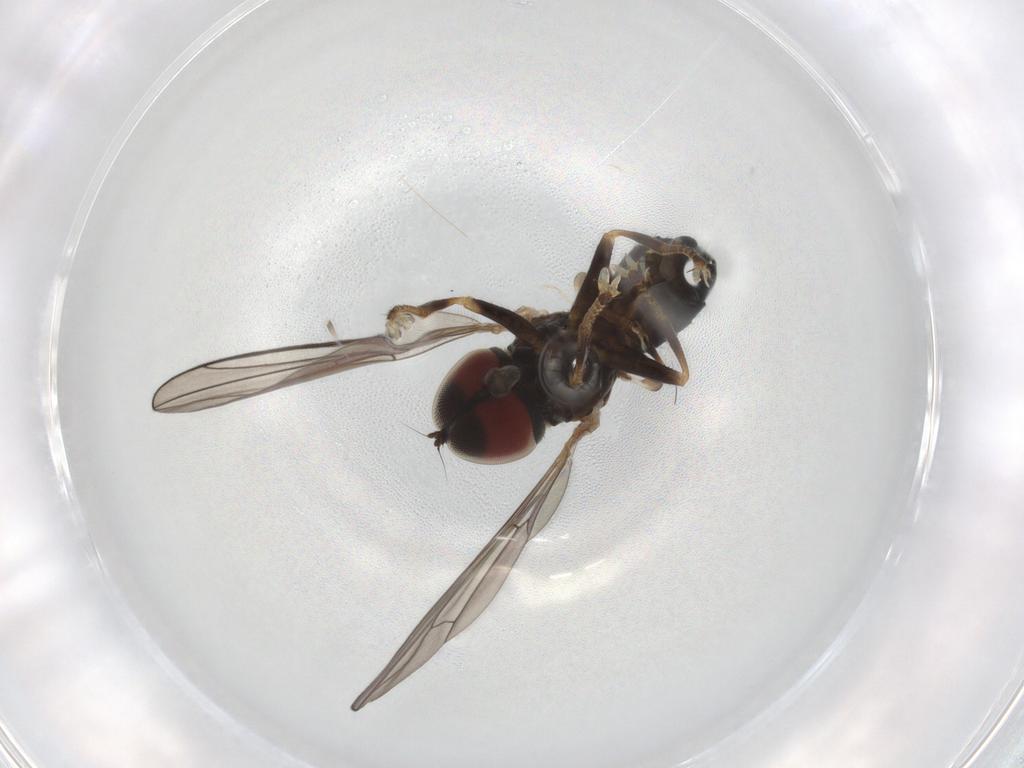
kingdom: Animalia
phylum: Arthropoda
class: Insecta
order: Diptera
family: Pipunculidae
